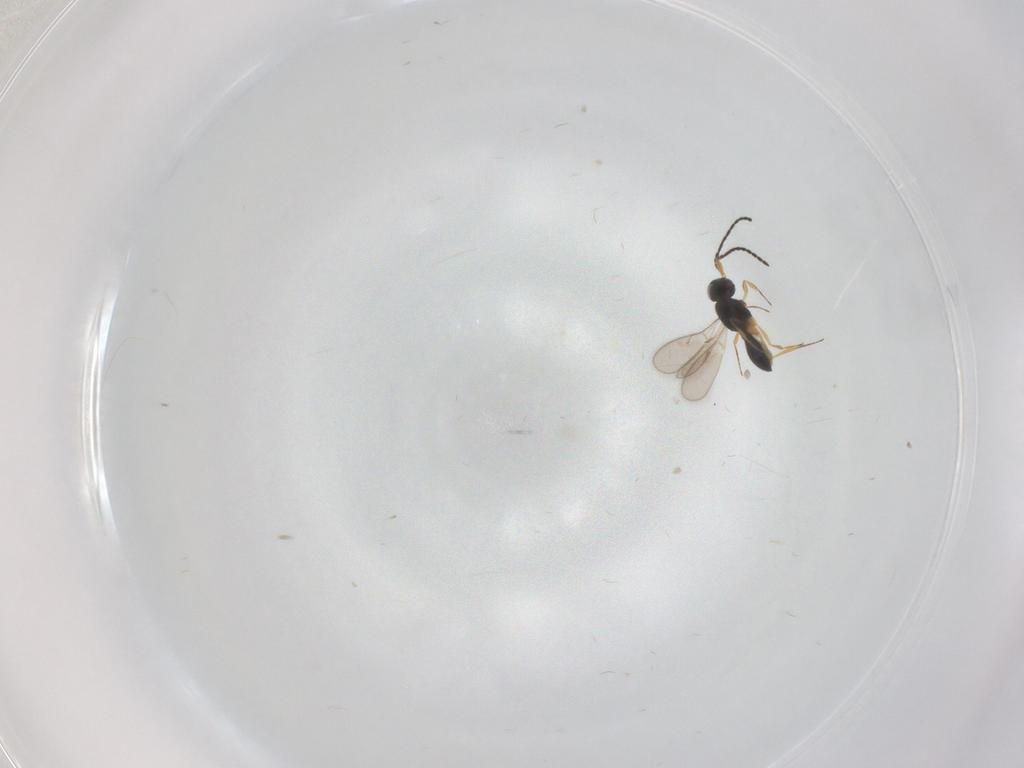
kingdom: Animalia
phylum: Arthropoda
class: Insecta
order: Hymenoptera
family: Scelionidae
